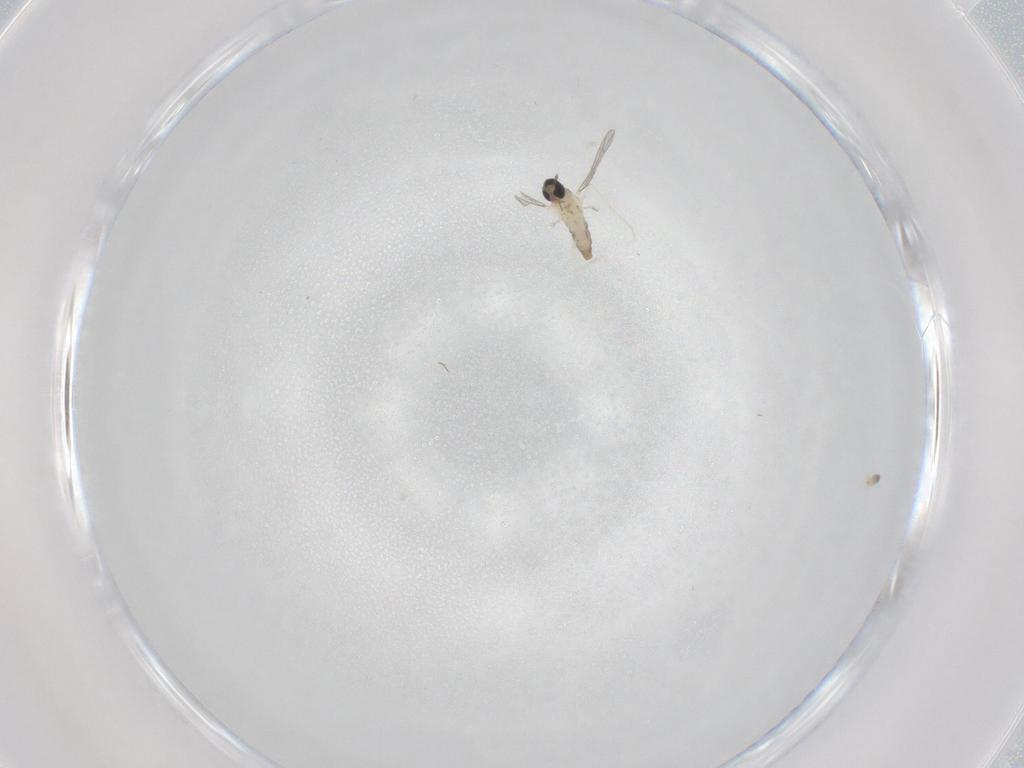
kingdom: Animalia
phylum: Arthropoda
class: Insecta
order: Diptera
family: Cecidomyiidae
